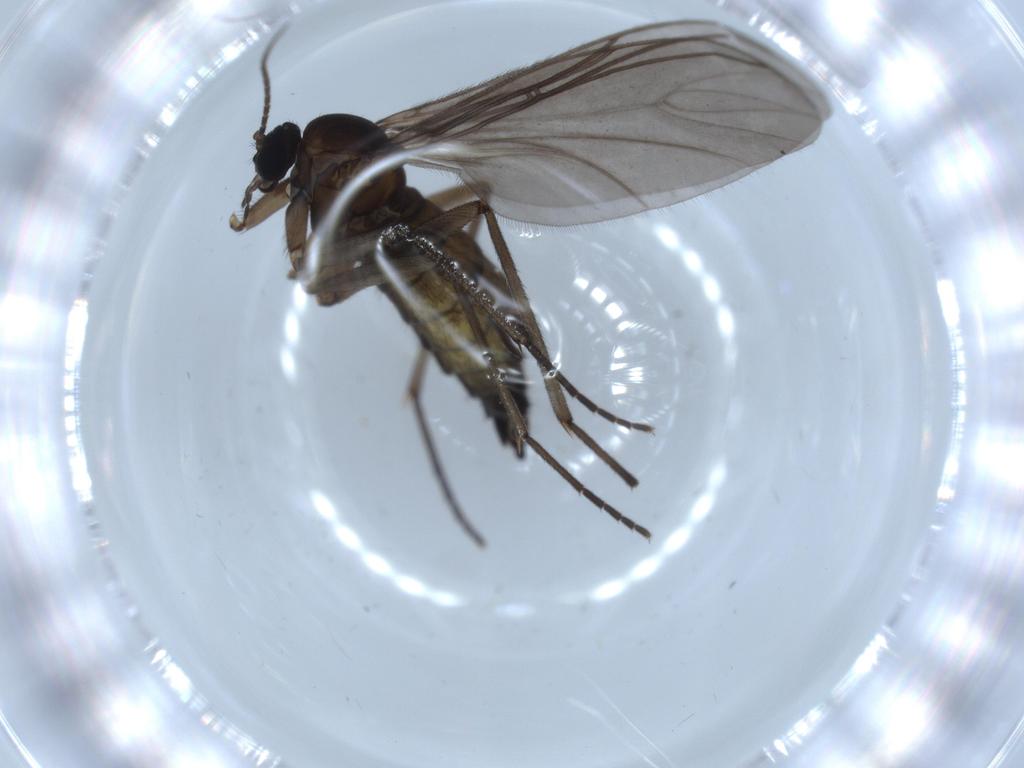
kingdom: Animalia
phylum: Arthropoda
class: Insecta
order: Diptera
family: Sciaridae
